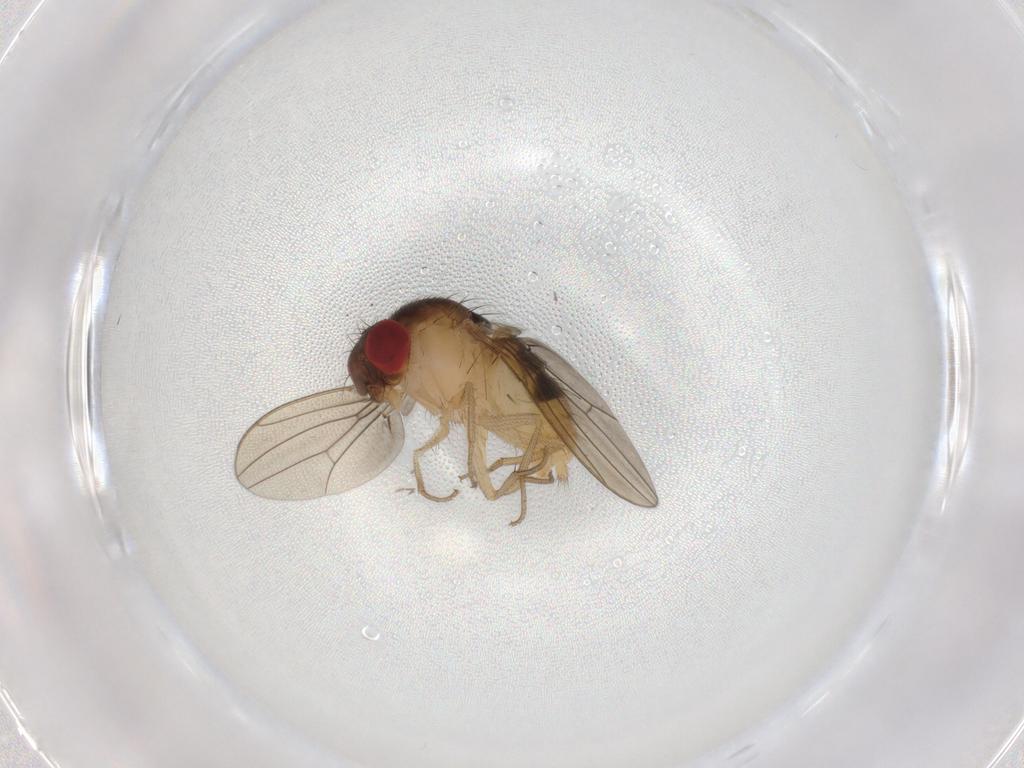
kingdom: Animalia
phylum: Arthropoda
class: Insecta
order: Diptera
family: Drosophilidae
